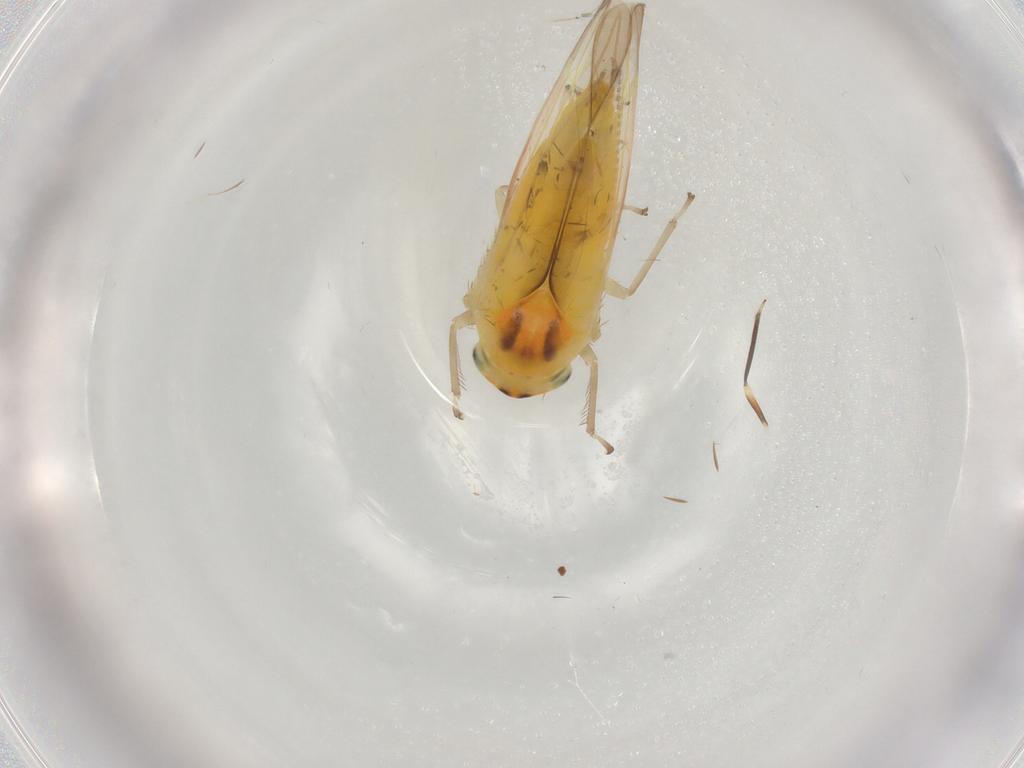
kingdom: Animalia
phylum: Arthropoda
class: Insecta
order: Hemiptera
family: Cicadellidae
